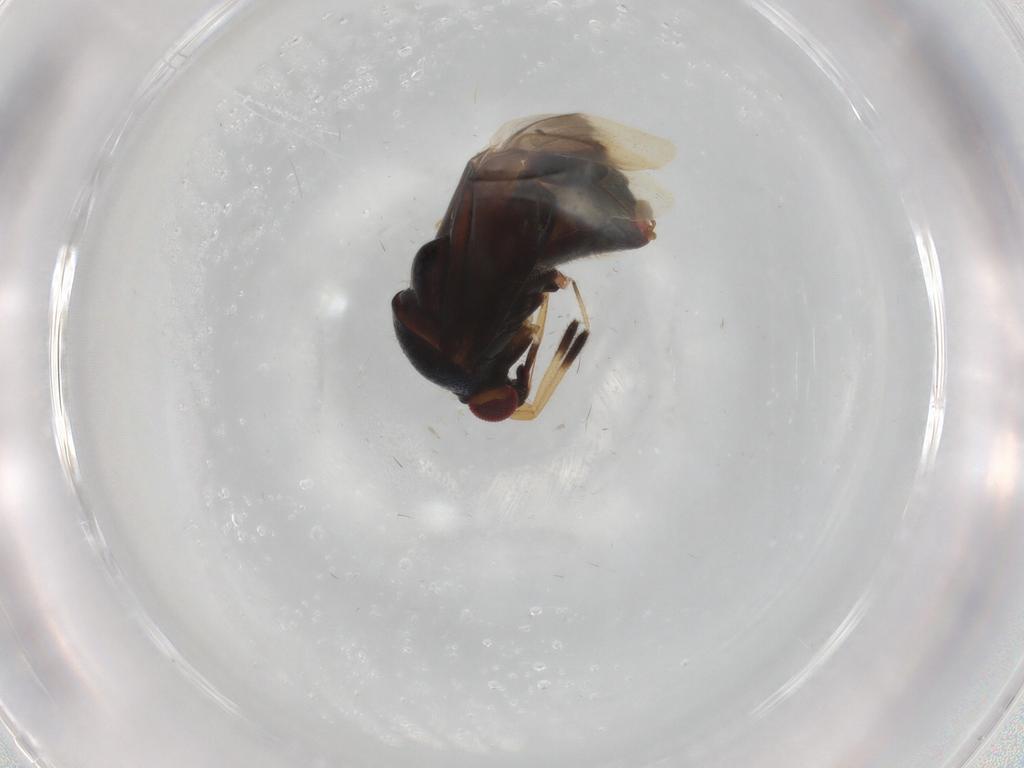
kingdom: Animalia
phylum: Arthropoda
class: Insecta
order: Hemiptera
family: Miridae
